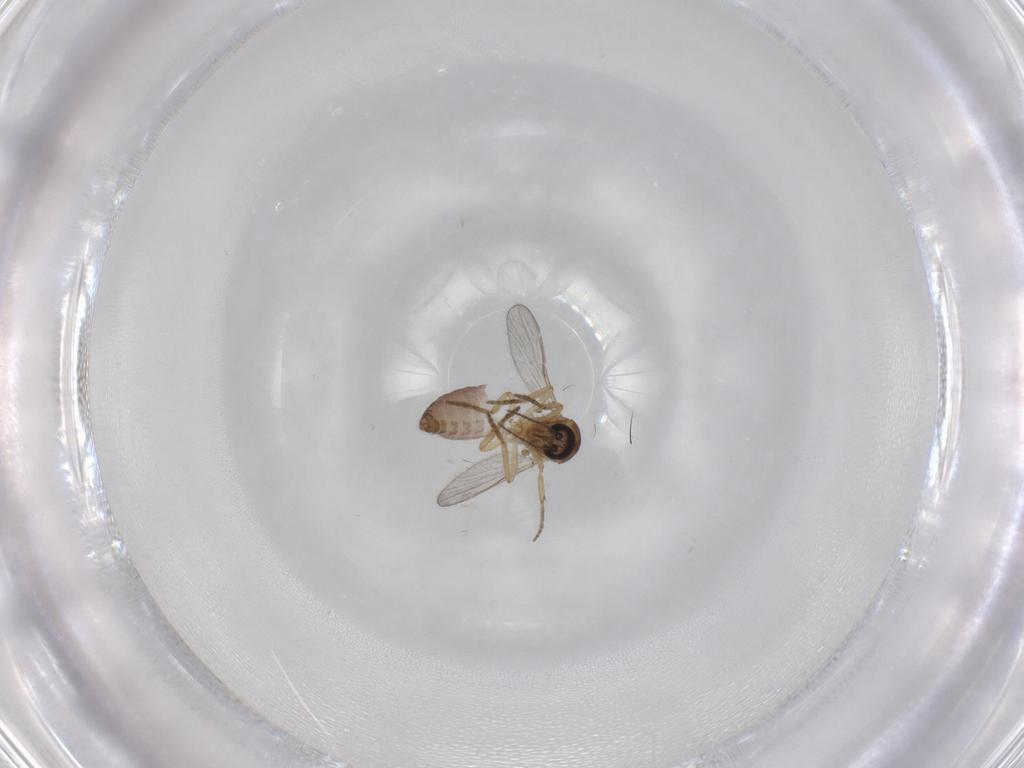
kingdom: Animalia
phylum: Arthropoda
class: Insecta
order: Diptera
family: Ceratopogonidae
